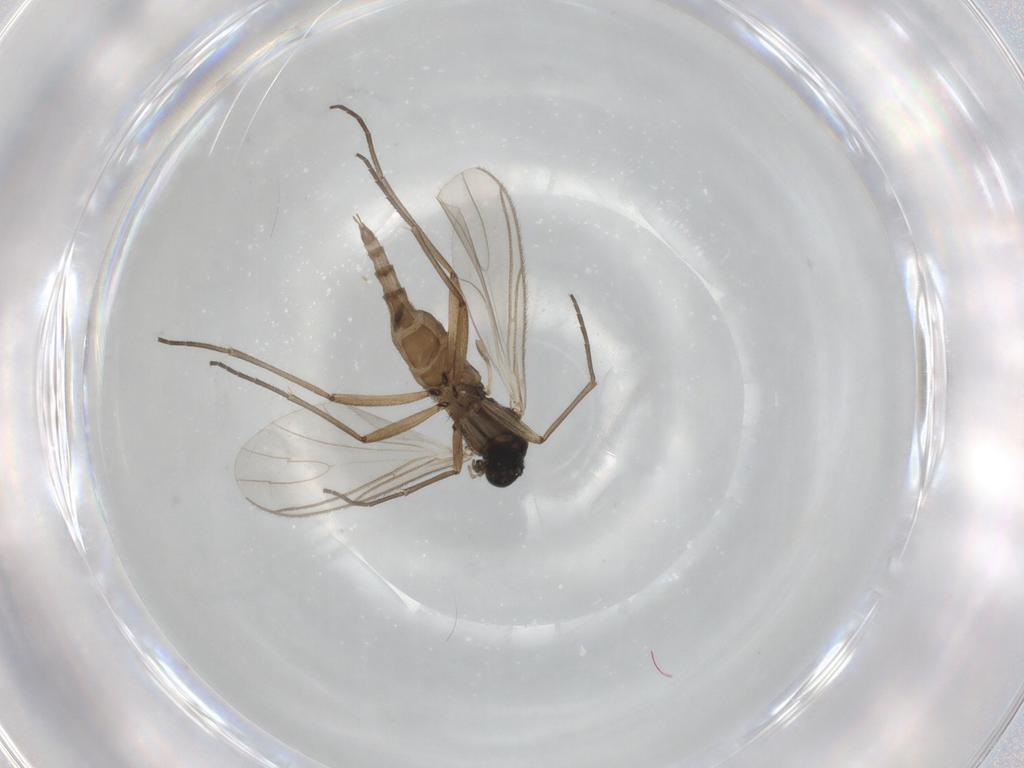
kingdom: Animalia
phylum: Arthropoda
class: Insecta
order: Diptera
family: Sciaridae
